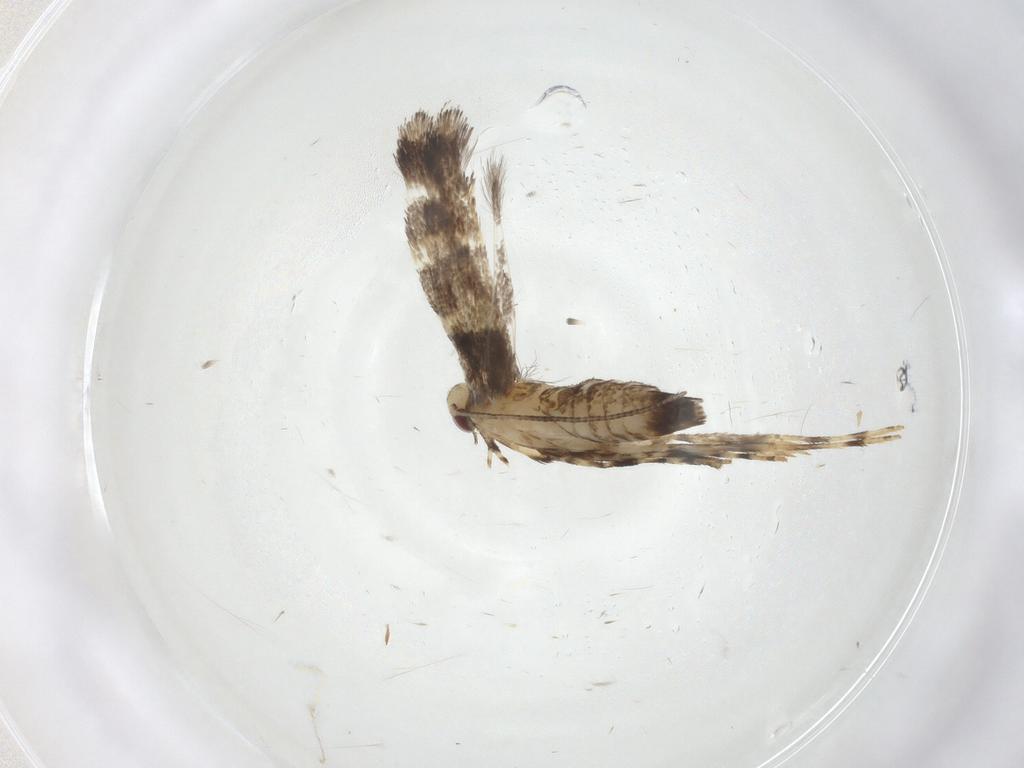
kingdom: Animalia
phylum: Arthropoda
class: Insecta
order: Lepidoptera
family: Gracillariidae
